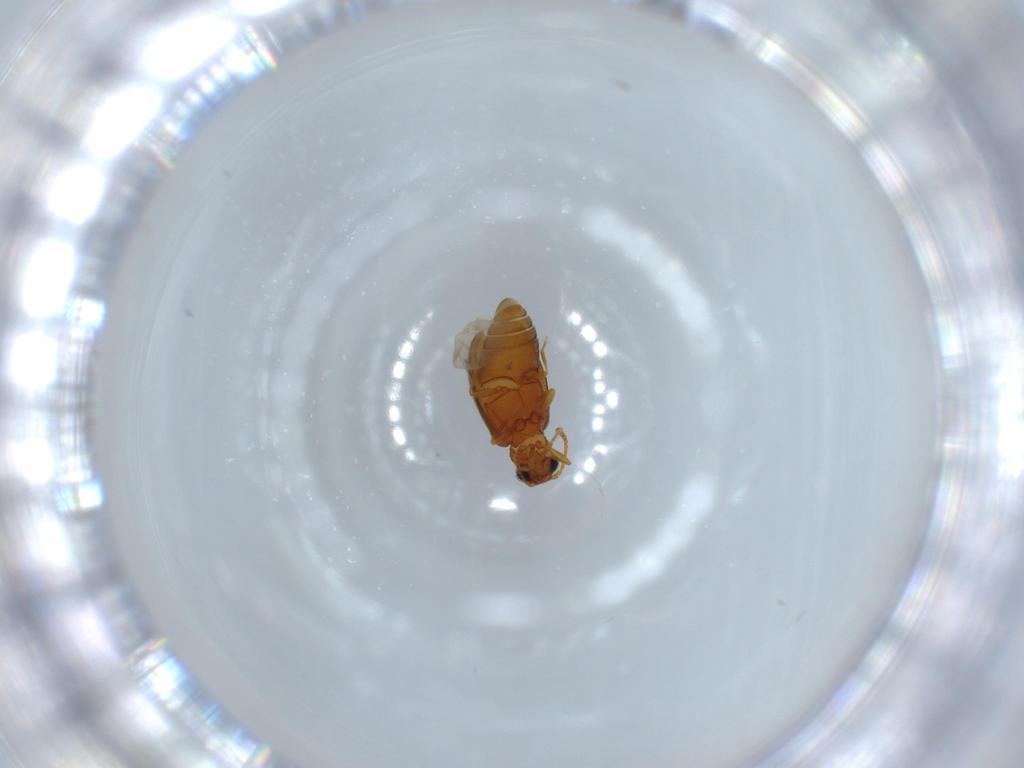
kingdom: Animalia
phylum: Arthropoda
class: Insecta
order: Coleoptera
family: Aderidae
